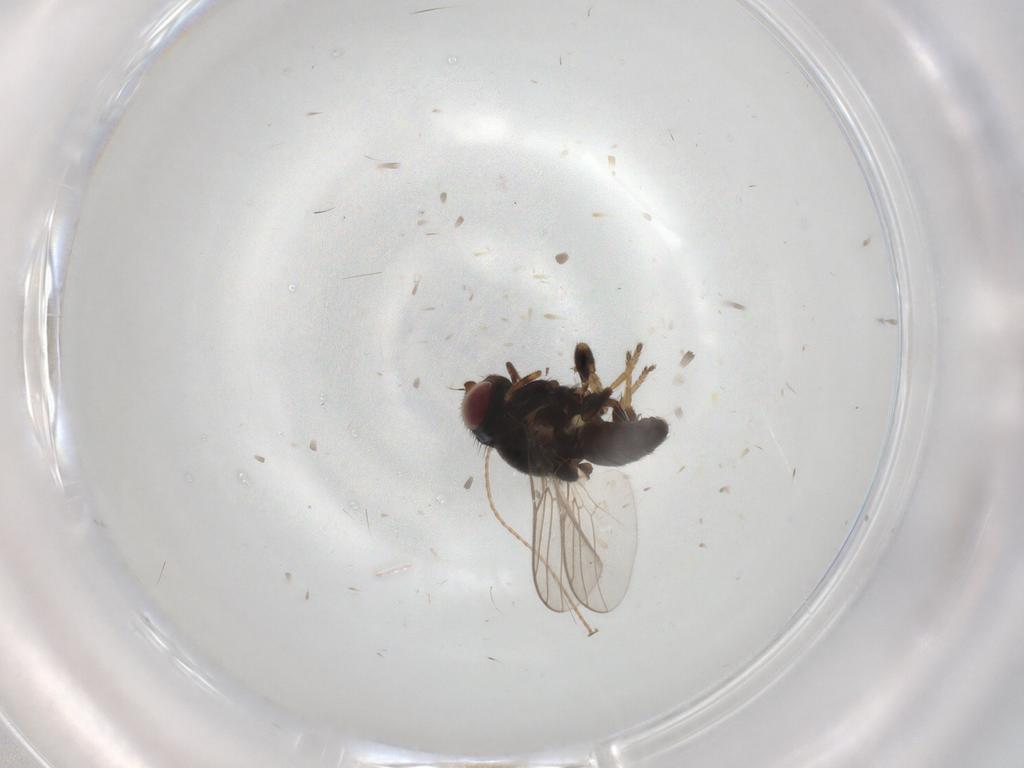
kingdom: Animalia
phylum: Arthropoda
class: Insecta
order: Diptera
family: Chloropidae
